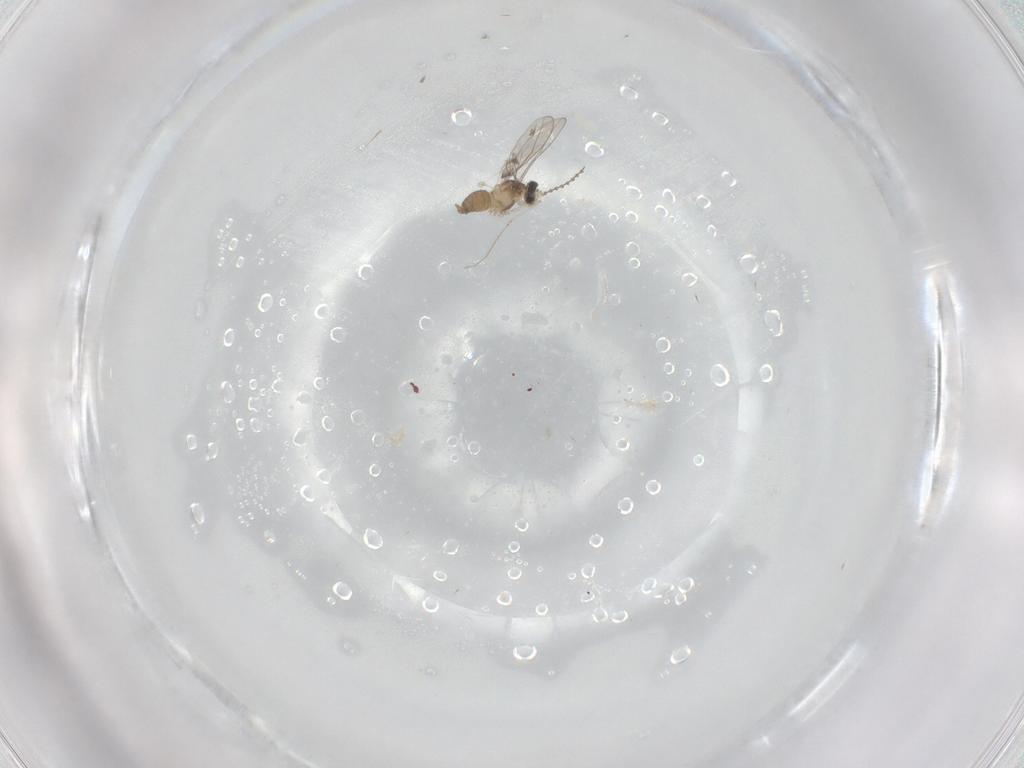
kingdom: Animalia
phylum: Arthropoda
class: Insecta
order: Diptera
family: Cecidomyiidae
